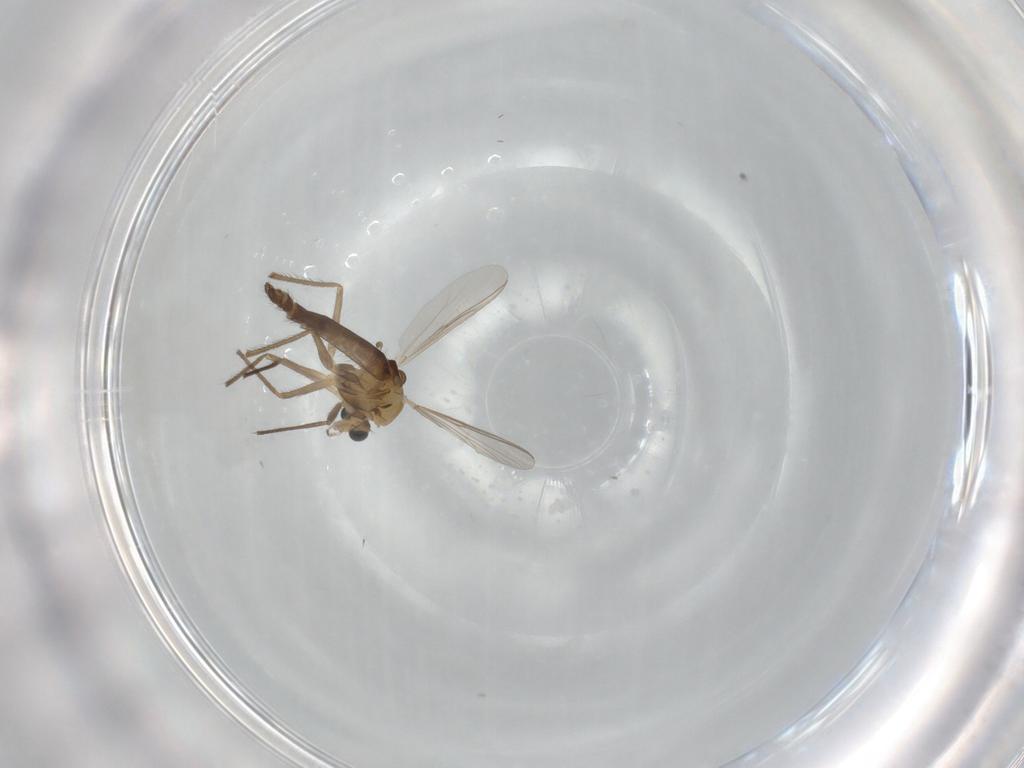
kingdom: Animalia
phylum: Arthropoda
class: Insecta
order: Diptera
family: Chironomidae
